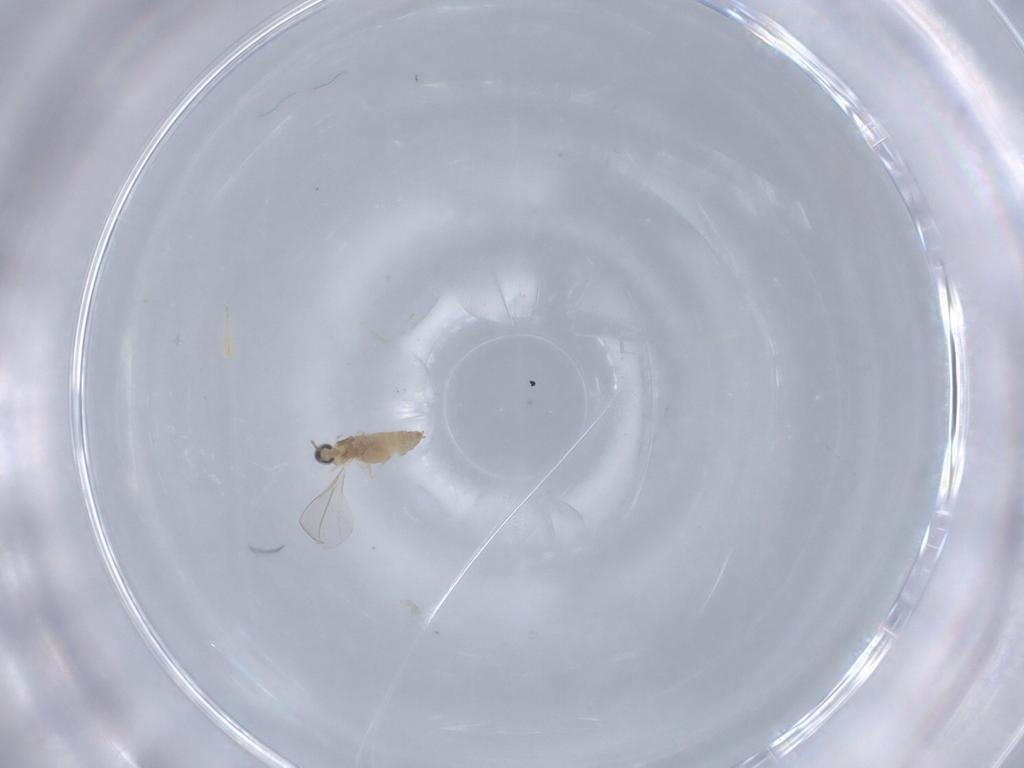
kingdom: Animalia
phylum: Arthropoda
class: Insecta
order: Diptera
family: Cecidomyiidae
